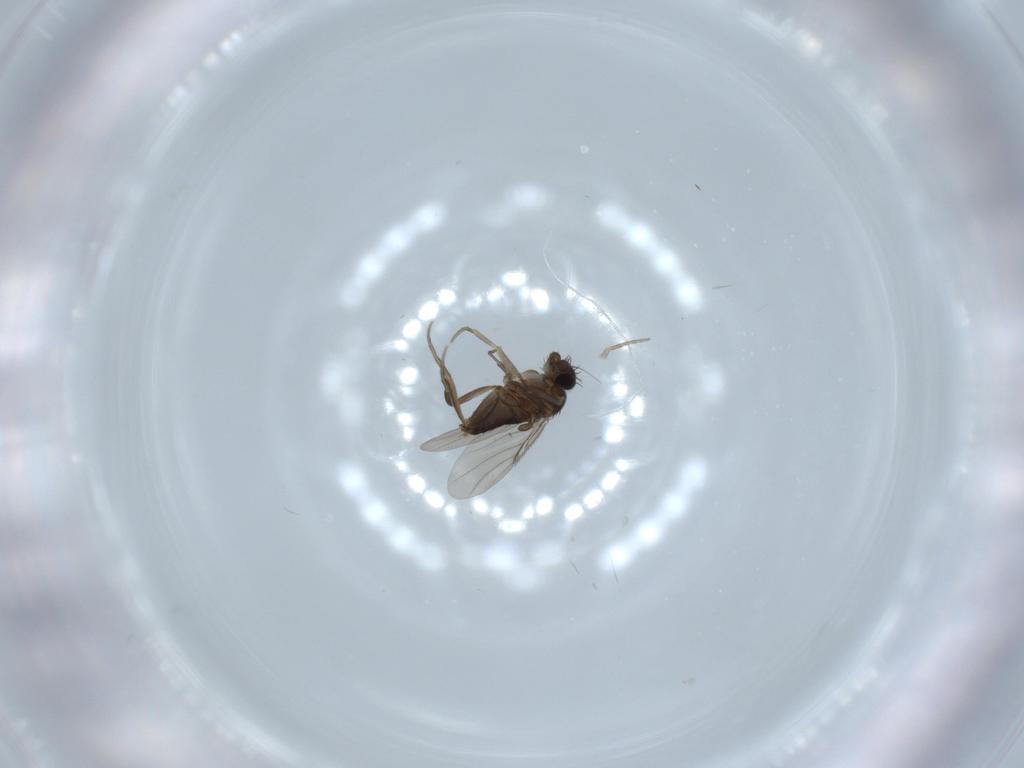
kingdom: Animalia
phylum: Arthropoda
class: Insecta
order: Diptera
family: Phoridae
